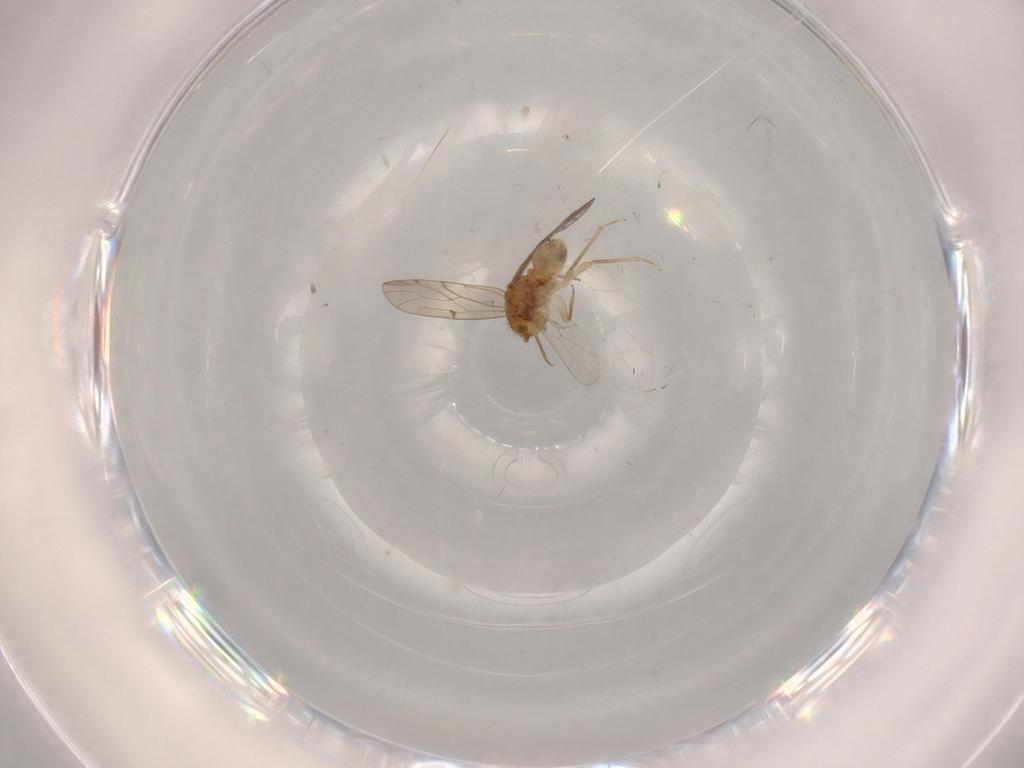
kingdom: Animalia
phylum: Arthropoda
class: Insecta
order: Psocodea
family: Ectopsocidae
